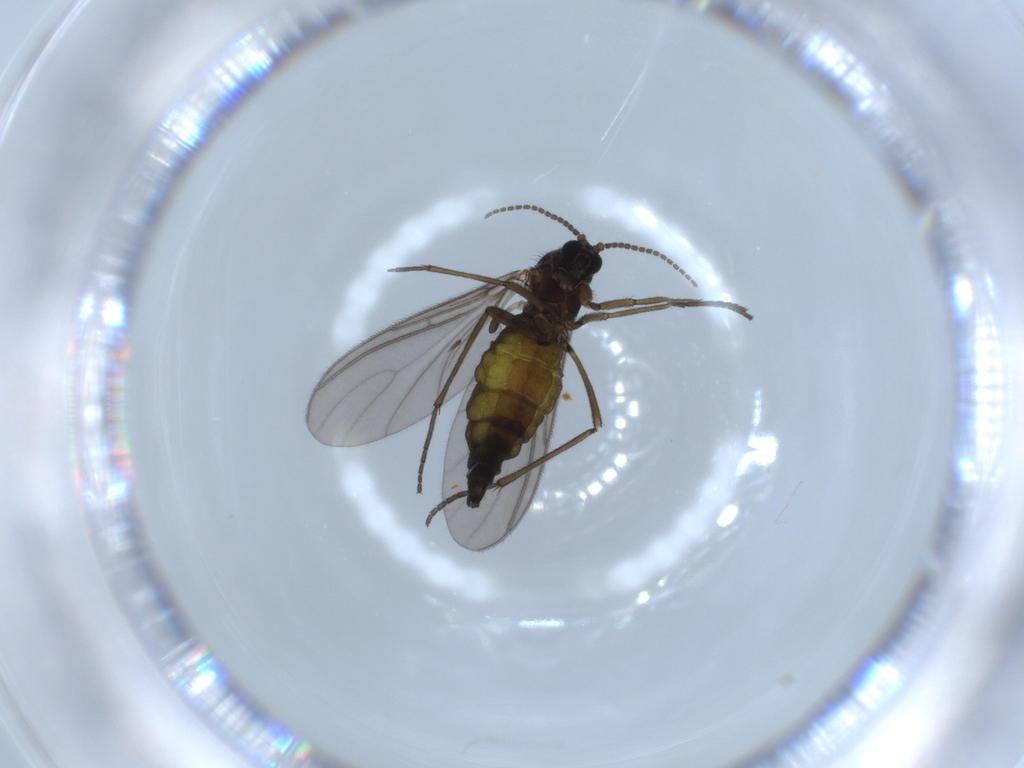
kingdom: Animalia
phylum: Arthropoda
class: Insecta
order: Diptera
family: Sciaridae
